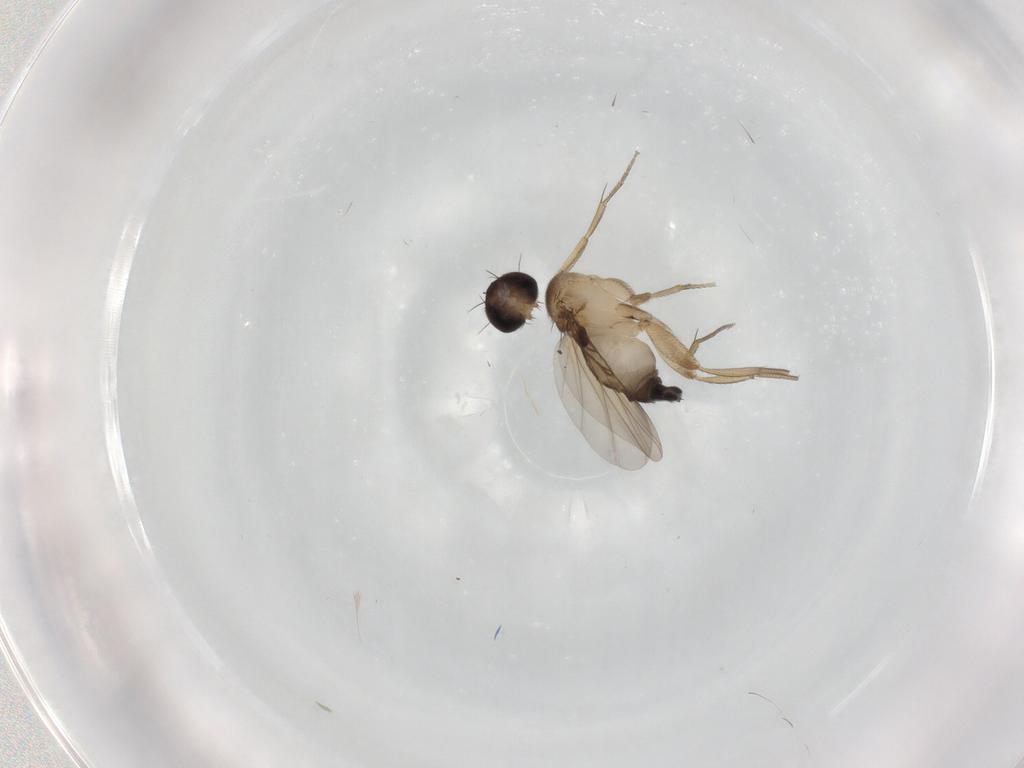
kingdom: Animalia
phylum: Arthropoda
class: Insecta
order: Diptera
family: Phoridae
